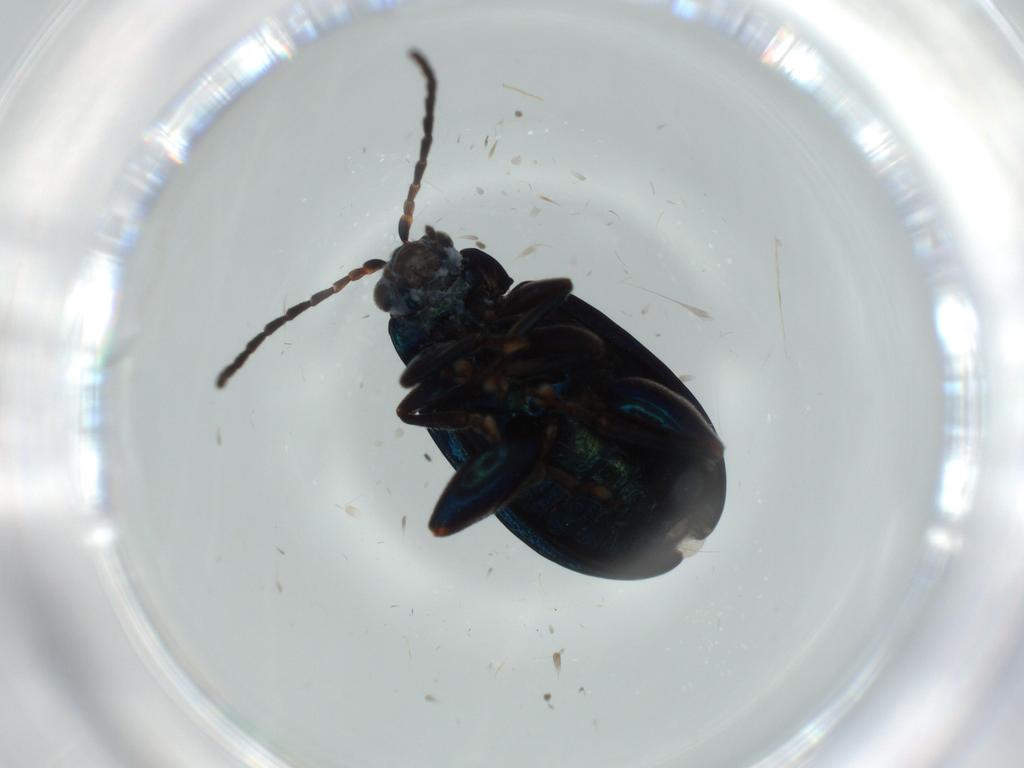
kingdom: Animalia
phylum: Arthropoda
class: Insecta
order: Coleoptera
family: Chrysomelidae
